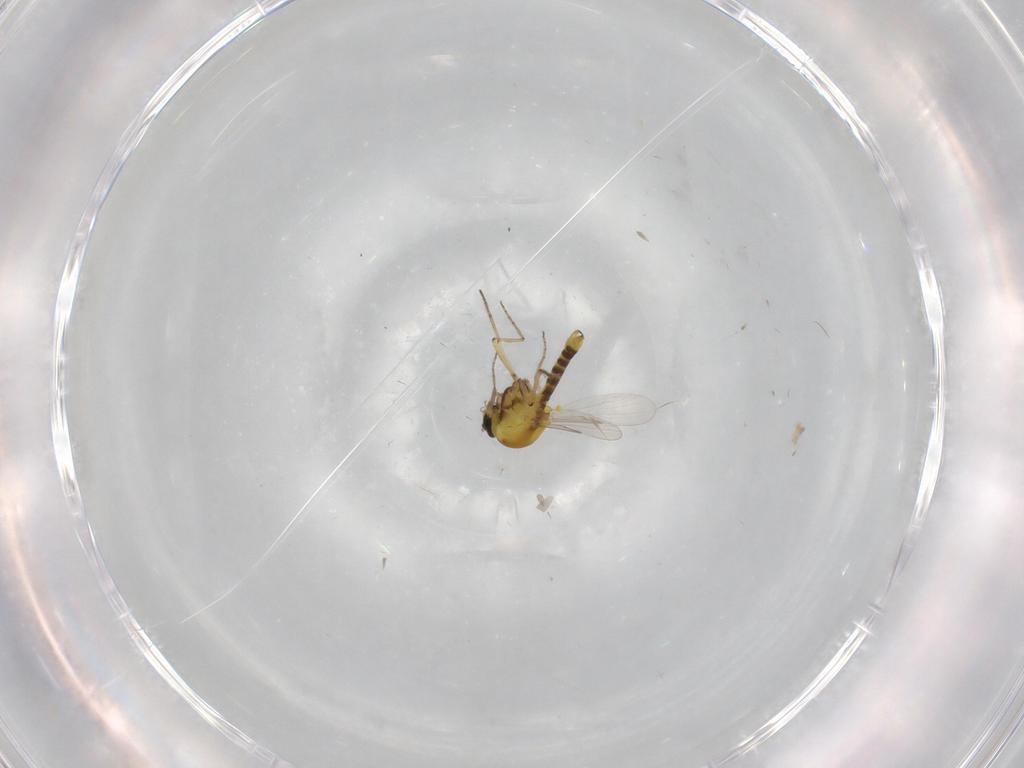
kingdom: Animalia
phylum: Arthropoda
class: Insecta
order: Diptera
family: Ceratopogonidae
